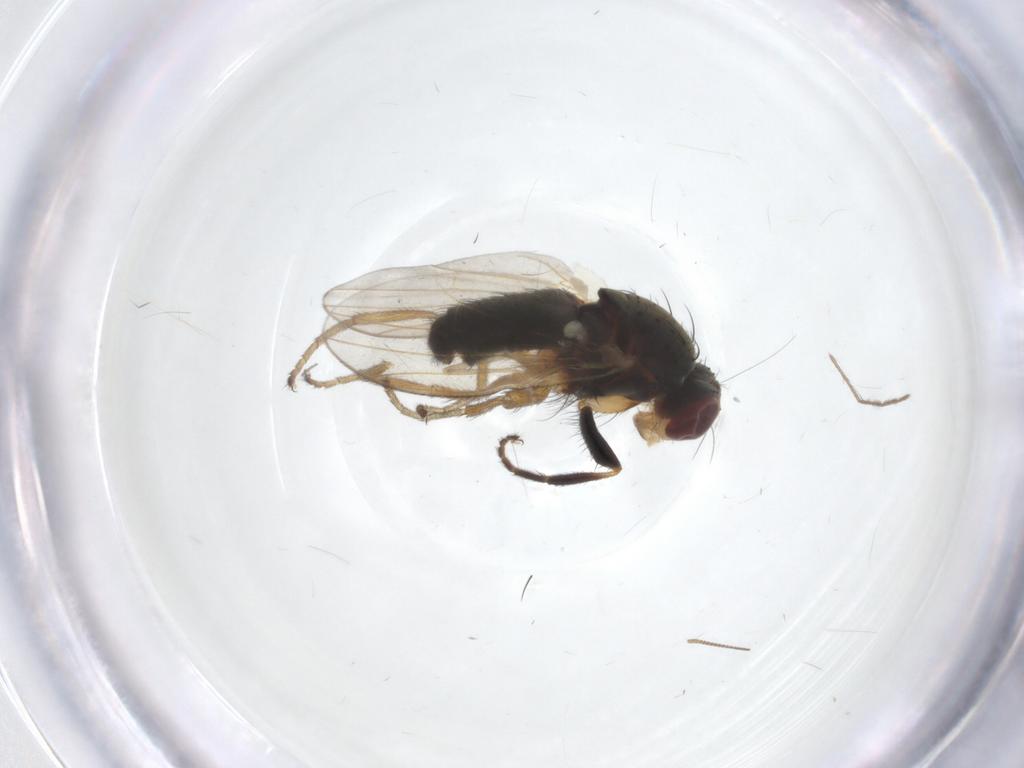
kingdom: Animalia
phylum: Arthropoda
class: Insecta
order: Diptera
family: Heleomyzidae
